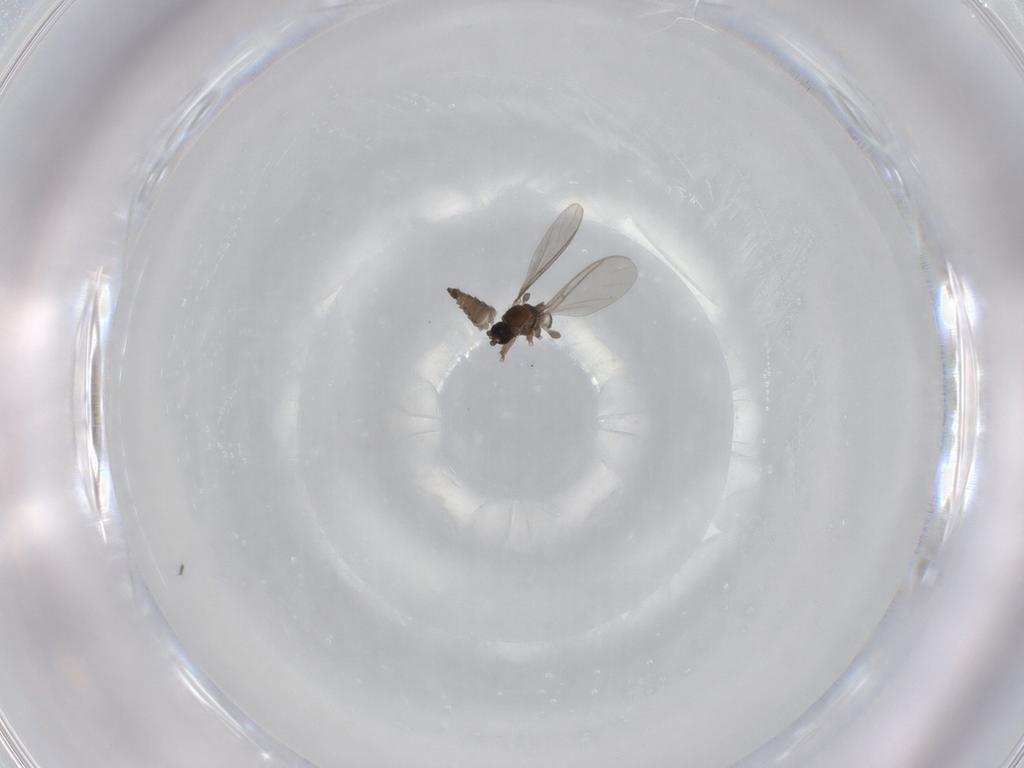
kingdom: Animalia
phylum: Arthropoda
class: Insecta
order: Diptera
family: Sciaridae
